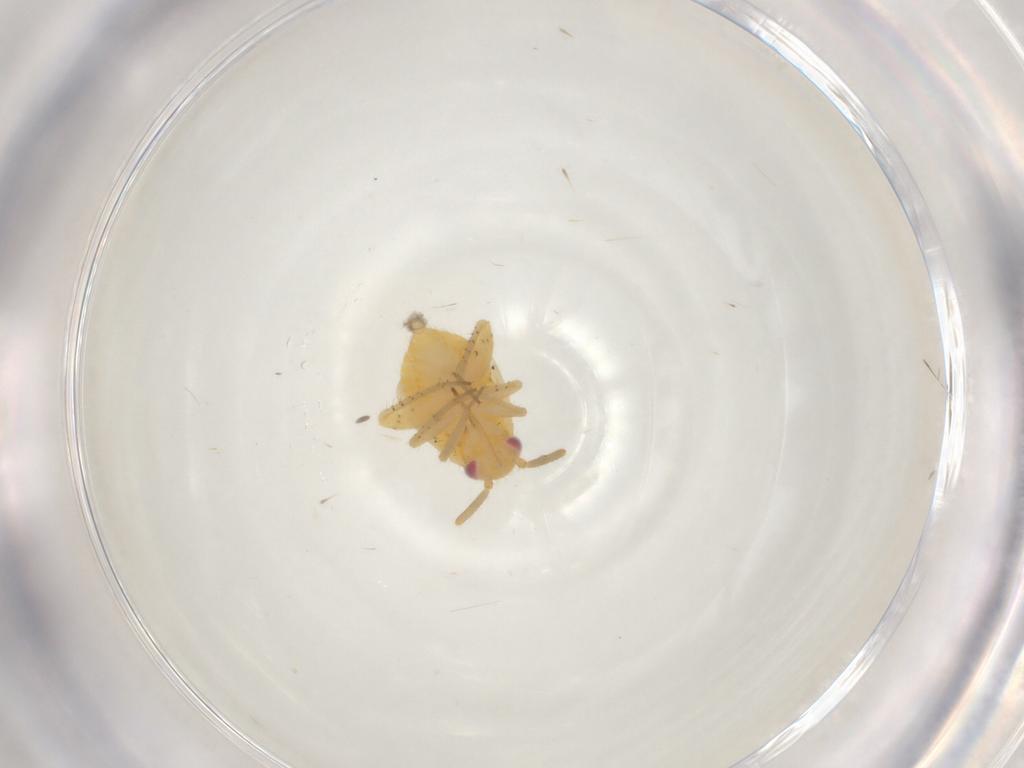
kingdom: Animalia
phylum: Arthropoda
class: Insecta
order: Hemiptera
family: Miridae
